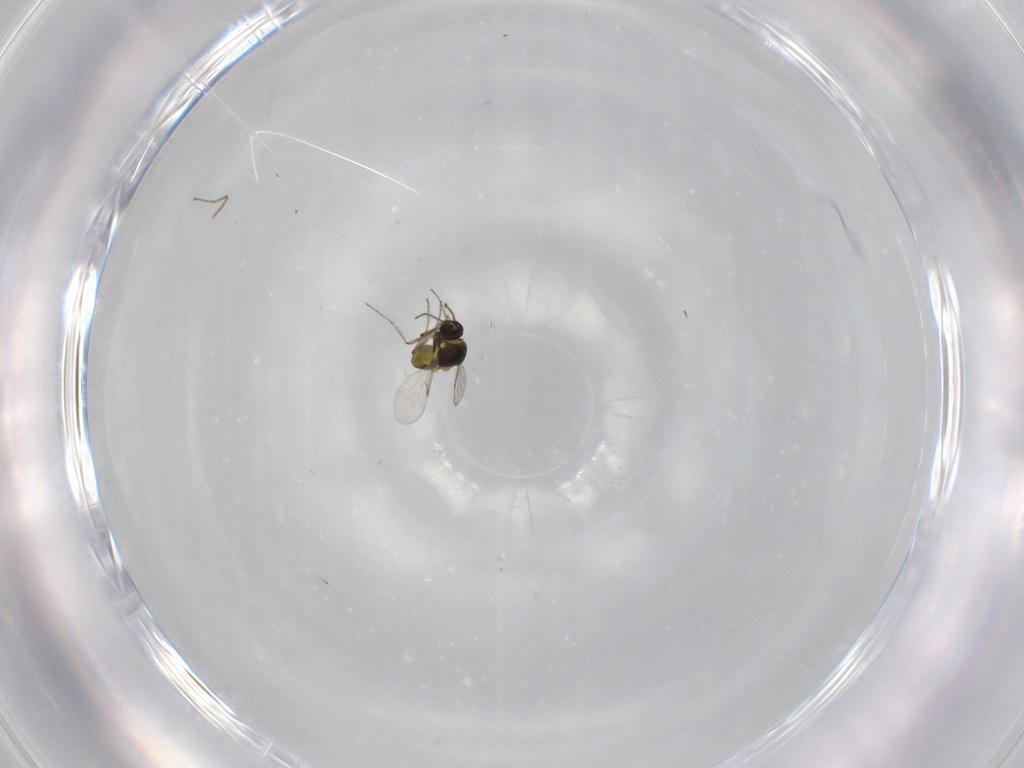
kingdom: Animalia
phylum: Arthropoda
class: Insecta
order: Diptera
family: Ceratopogonidae
